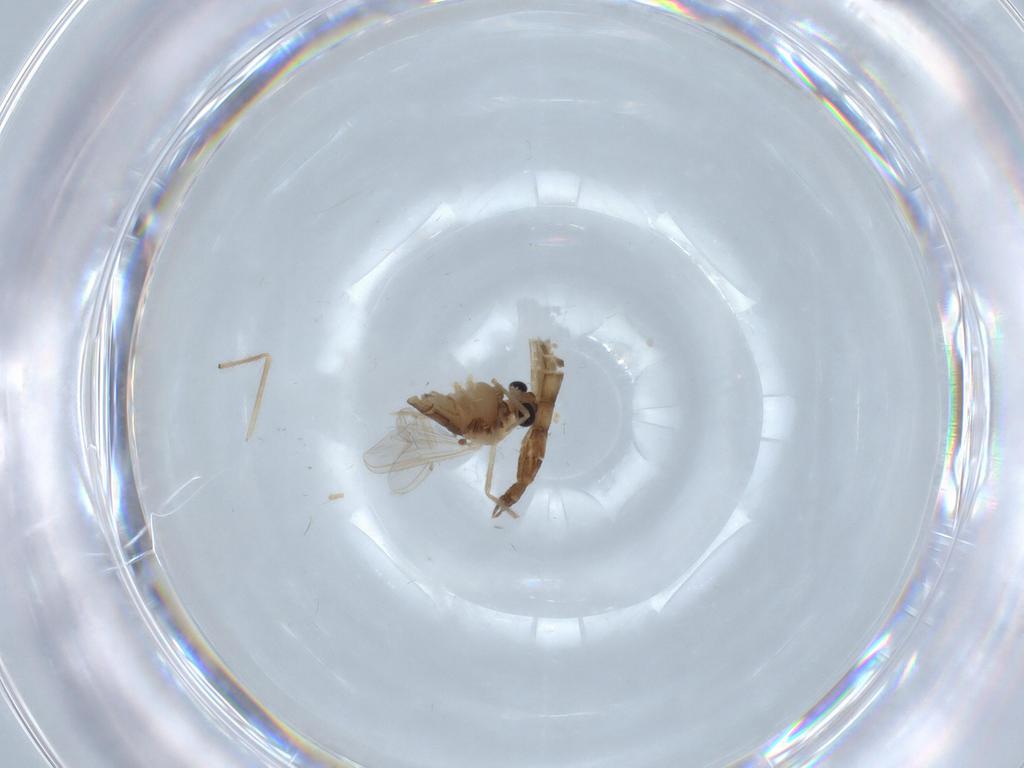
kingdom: Animalia
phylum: Arthropoda
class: Insecta
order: Diptera
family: Chironomidae
